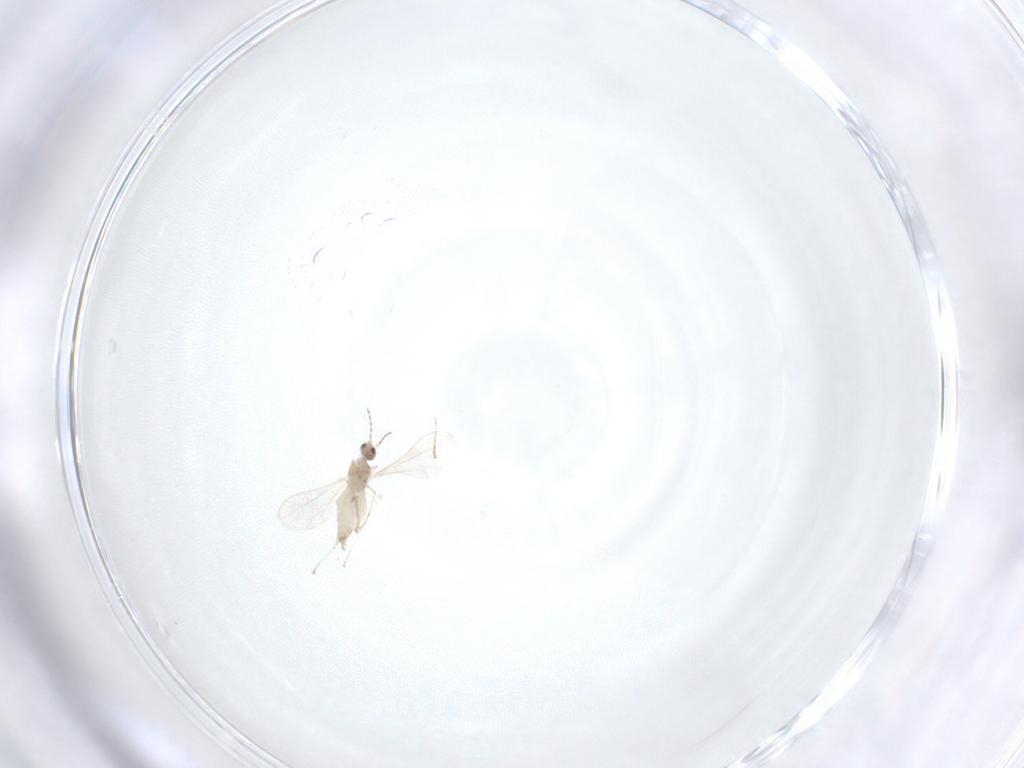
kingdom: Animalia
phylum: Arthropoda
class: Insecta
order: Diptera
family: Cecidomyiidae
